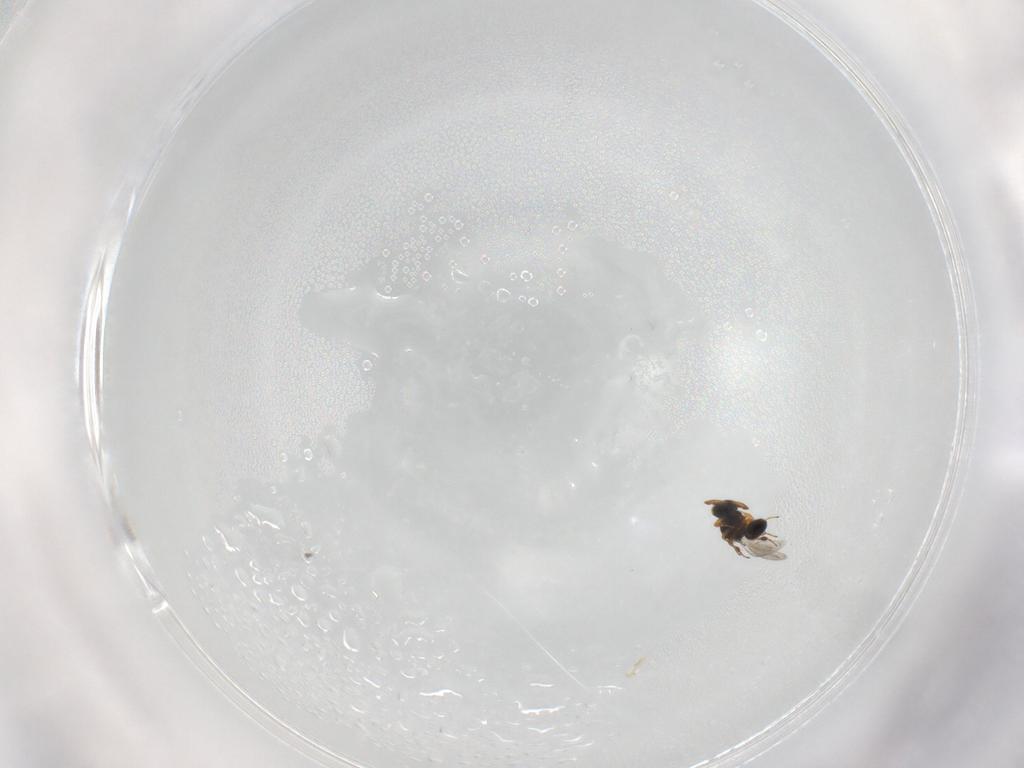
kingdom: Animalia
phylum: Arthropoda
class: Insecta
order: Hymenoptera
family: Platygastridae
